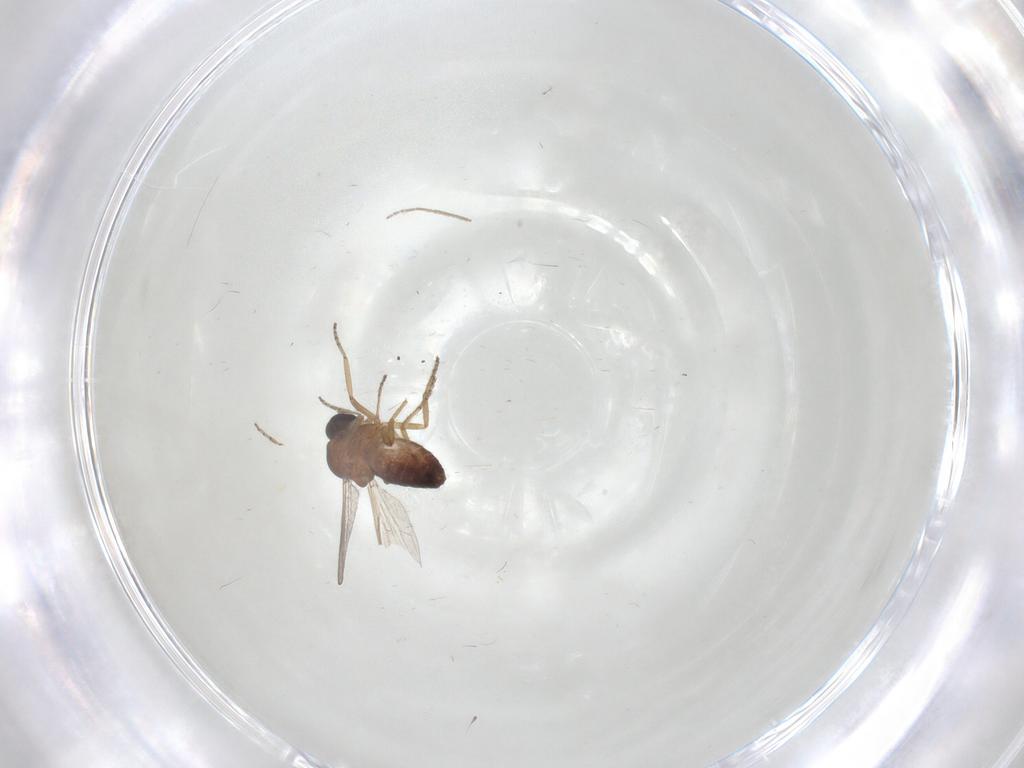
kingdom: Animalia
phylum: Arthropoda
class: Insecta
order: Diptera
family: Ceratopogonidae
